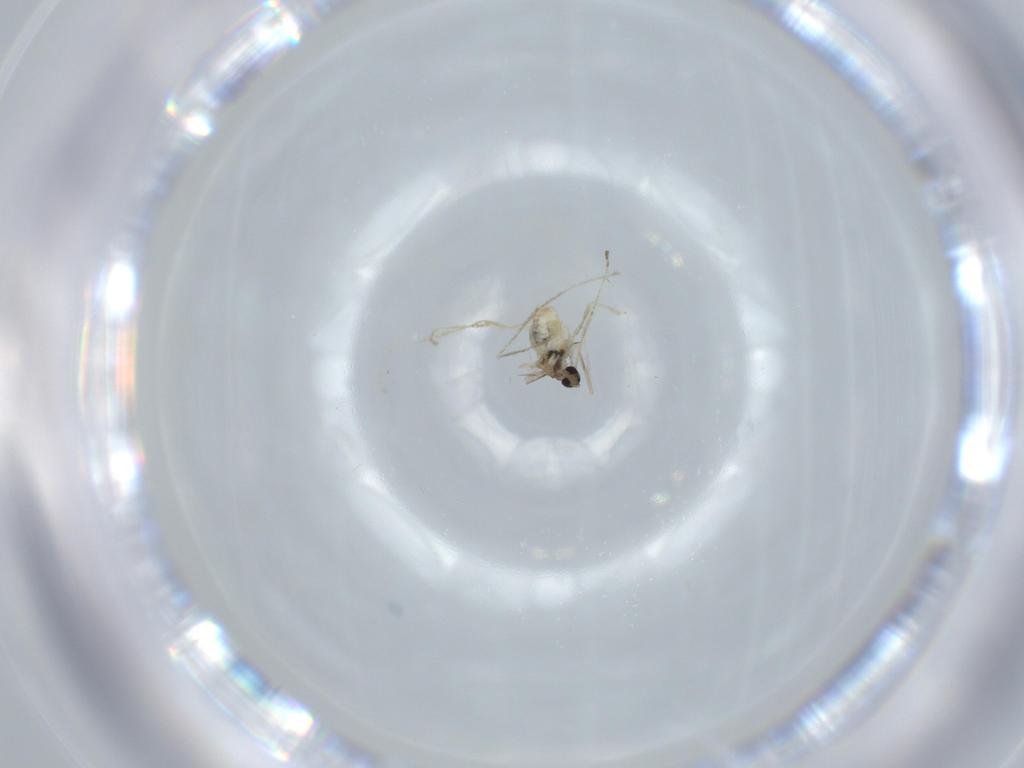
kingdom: Animalia
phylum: Arthropoda
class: Insecta
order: Diptera
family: Cecidomyiidae
